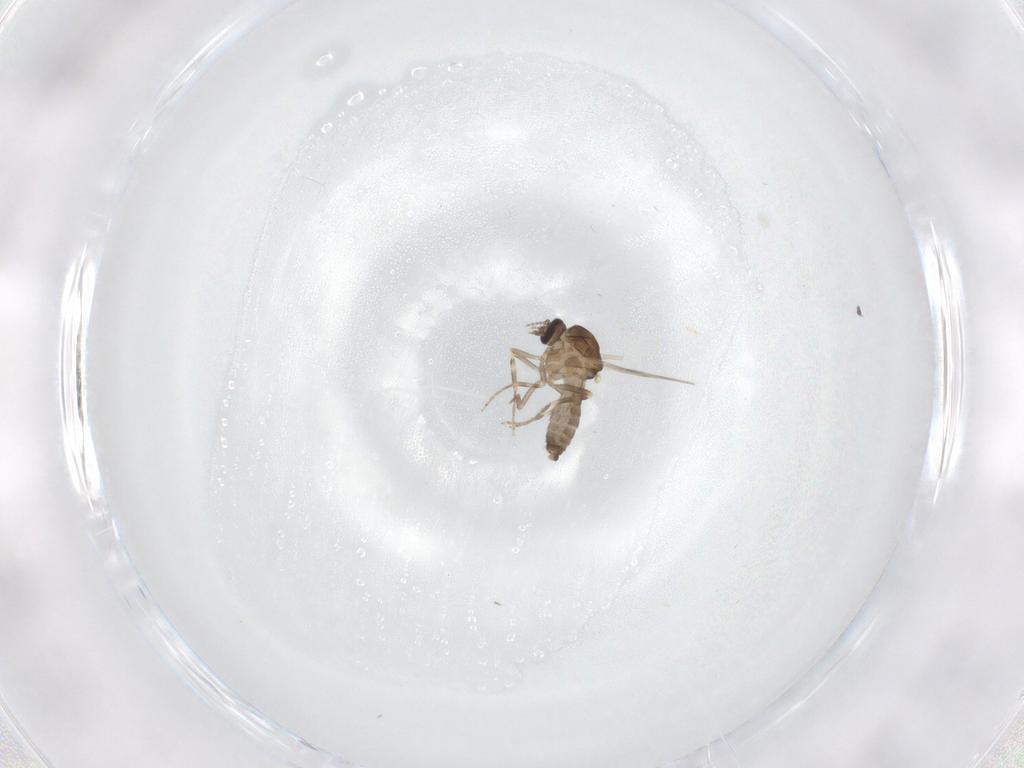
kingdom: Animalia
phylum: Arthropoda
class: Insecta
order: Diptera
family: Ceratopogonidae
